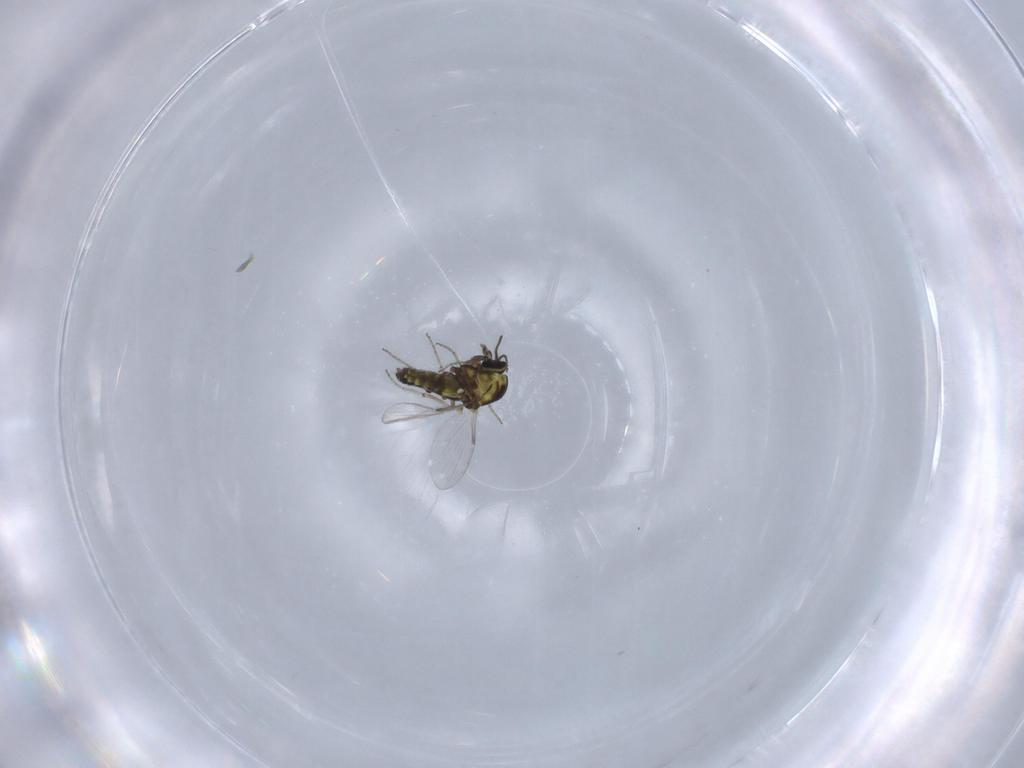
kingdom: Animalia
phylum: Arthropoda
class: Insecta
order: Diptera
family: Ceratopogonidae
